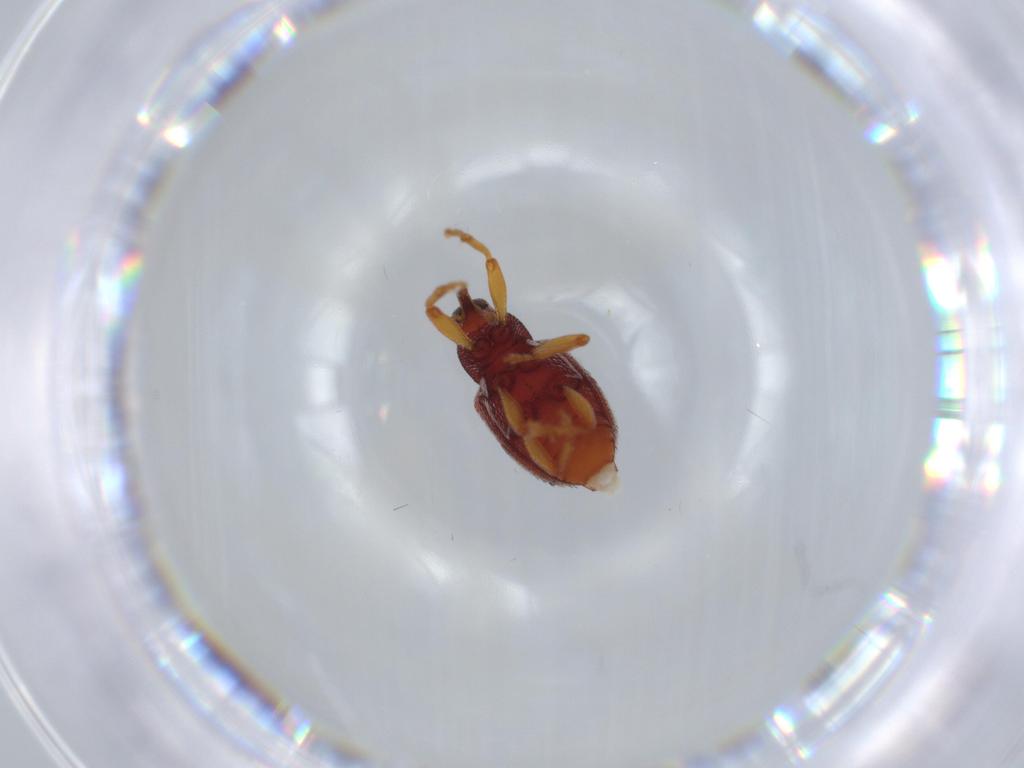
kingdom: Animalia
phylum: Arthropoda
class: Insecta
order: Coleoptera
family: Curculionidae
